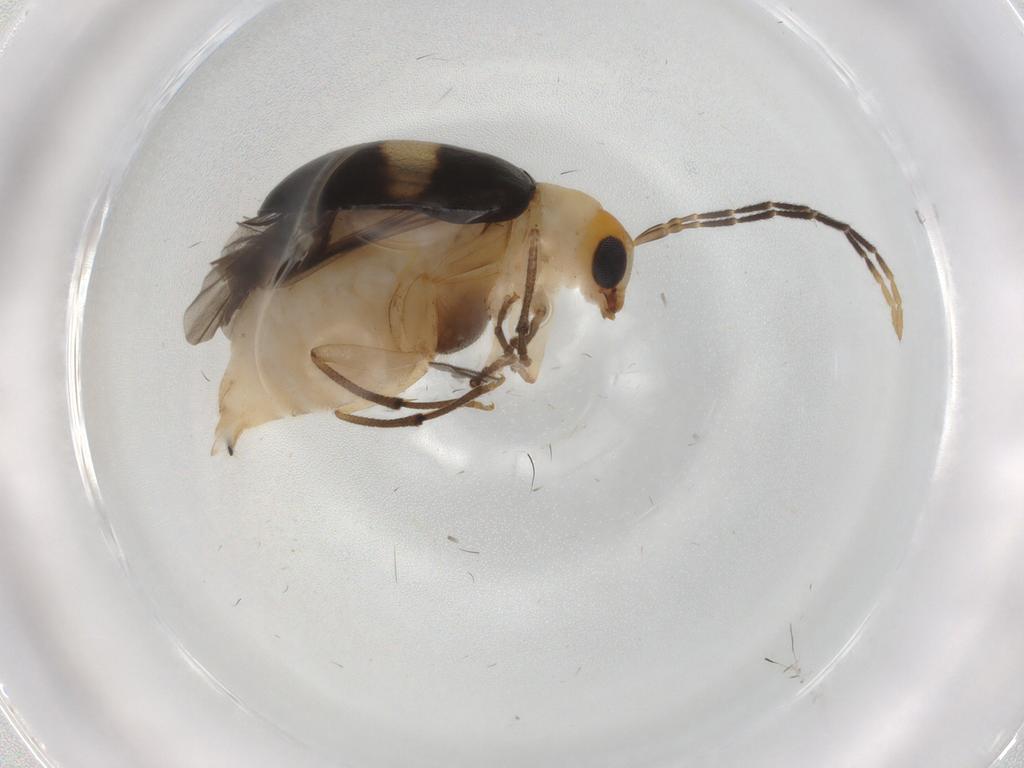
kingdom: Animalia
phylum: Arthropoda
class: Insecta
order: Coleoptera
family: Chrysomelidae
